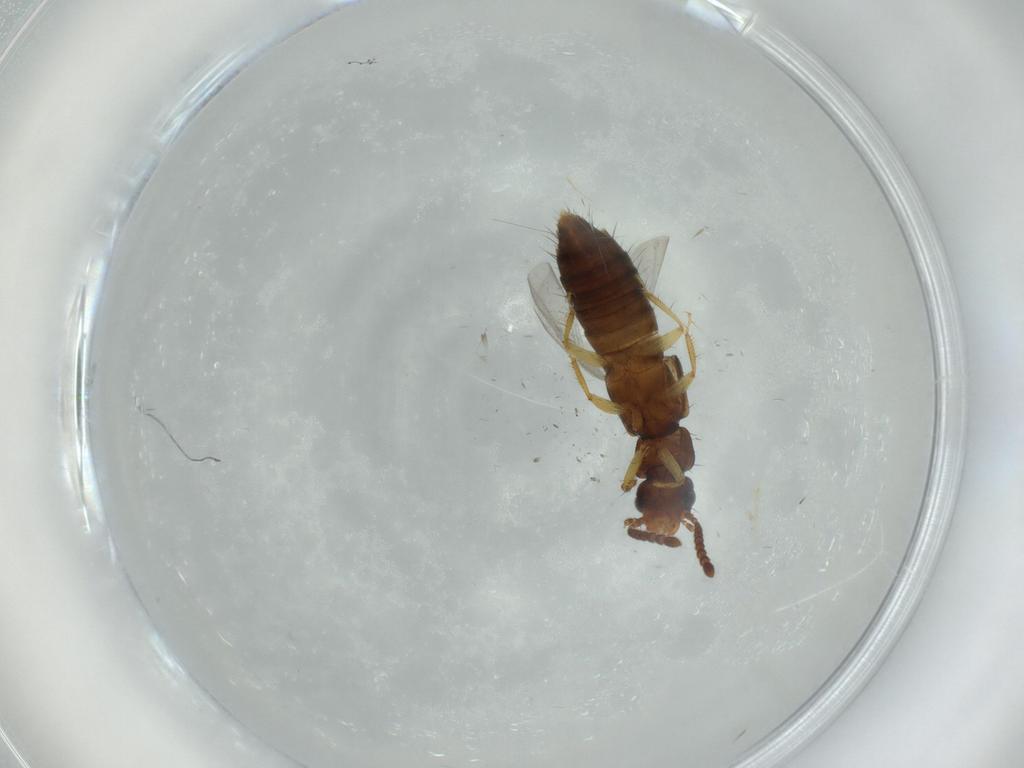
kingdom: Animalia
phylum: Arthropoda
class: Insecta
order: Coleoptera
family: Staphylinidae
